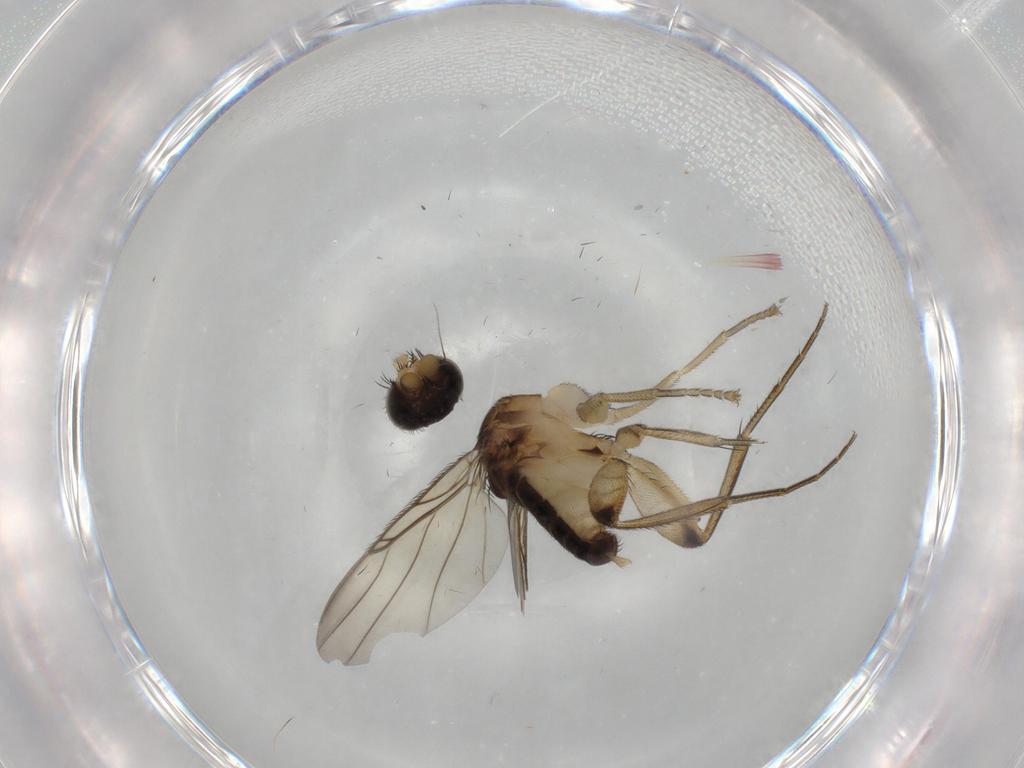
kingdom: Animalia
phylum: Arthropoda
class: Insecta
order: Diptera
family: Phoridae
